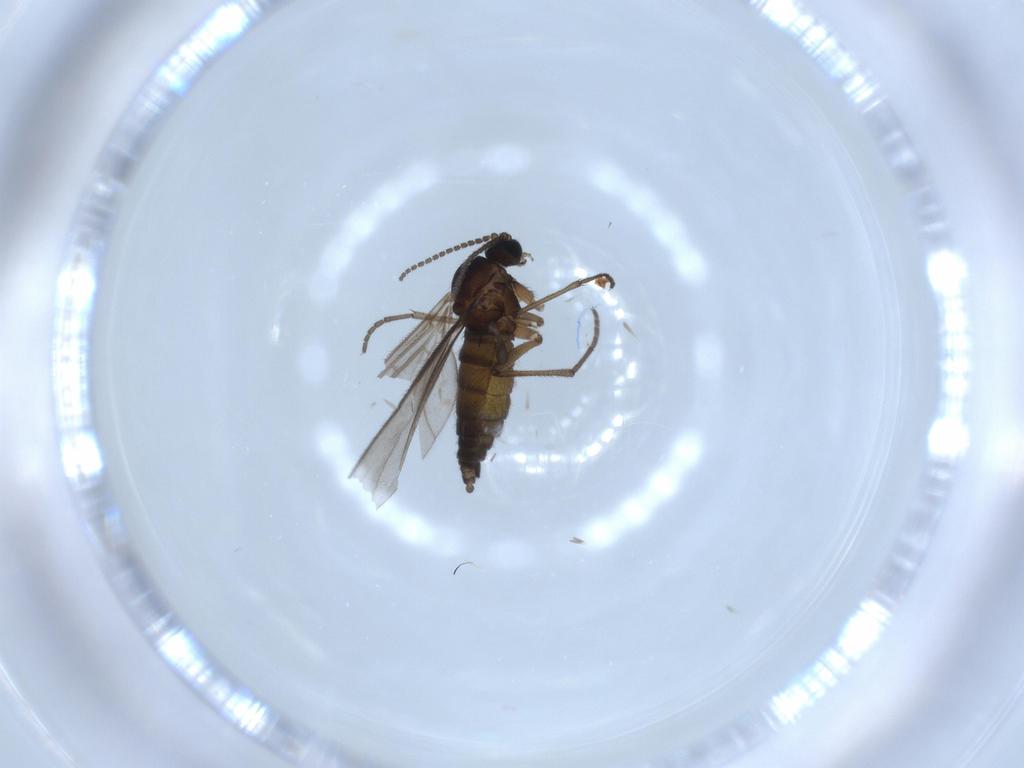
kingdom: Animalia
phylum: Arthropoda
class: Insecta
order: Diptera
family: Sciaridae
